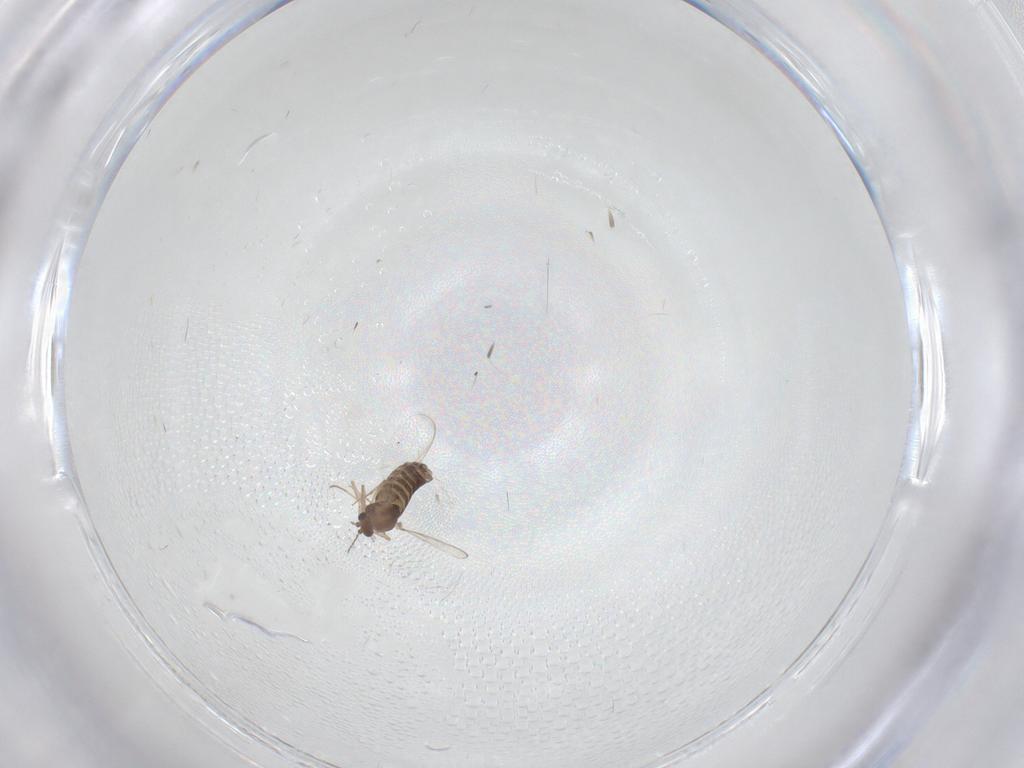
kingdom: Animalia
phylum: Arthropoda
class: Insecta
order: Diptera
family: Chironomidae
